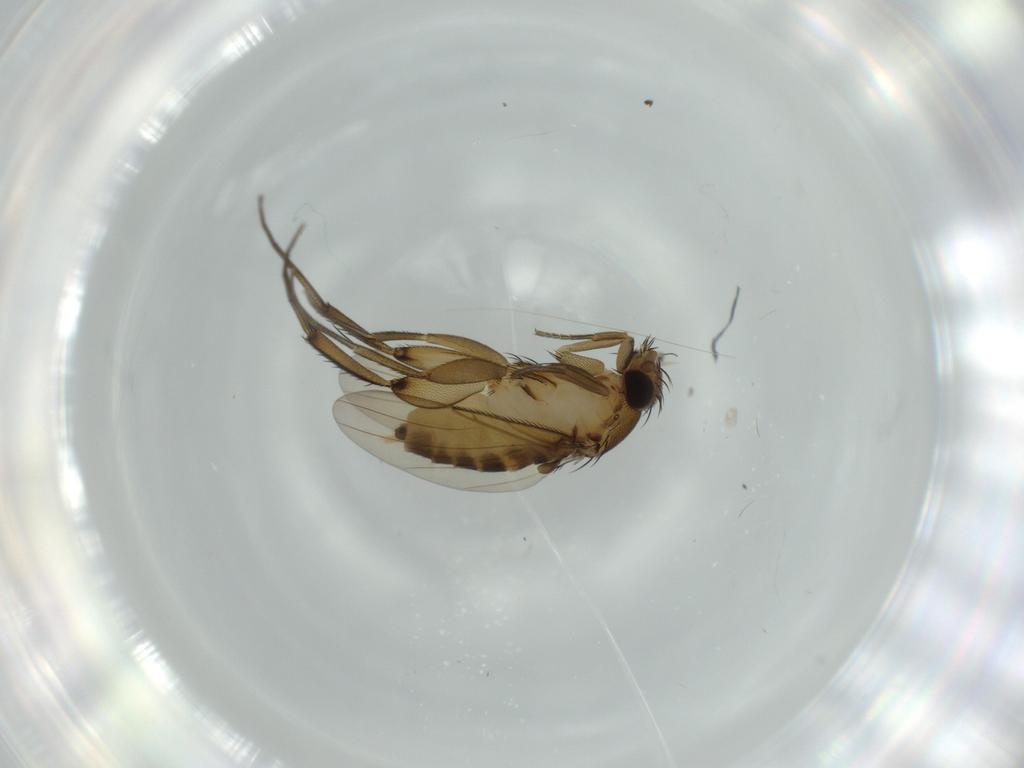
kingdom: Animalia
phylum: Arthropoda
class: Insecta
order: Diptera
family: Phoridae
